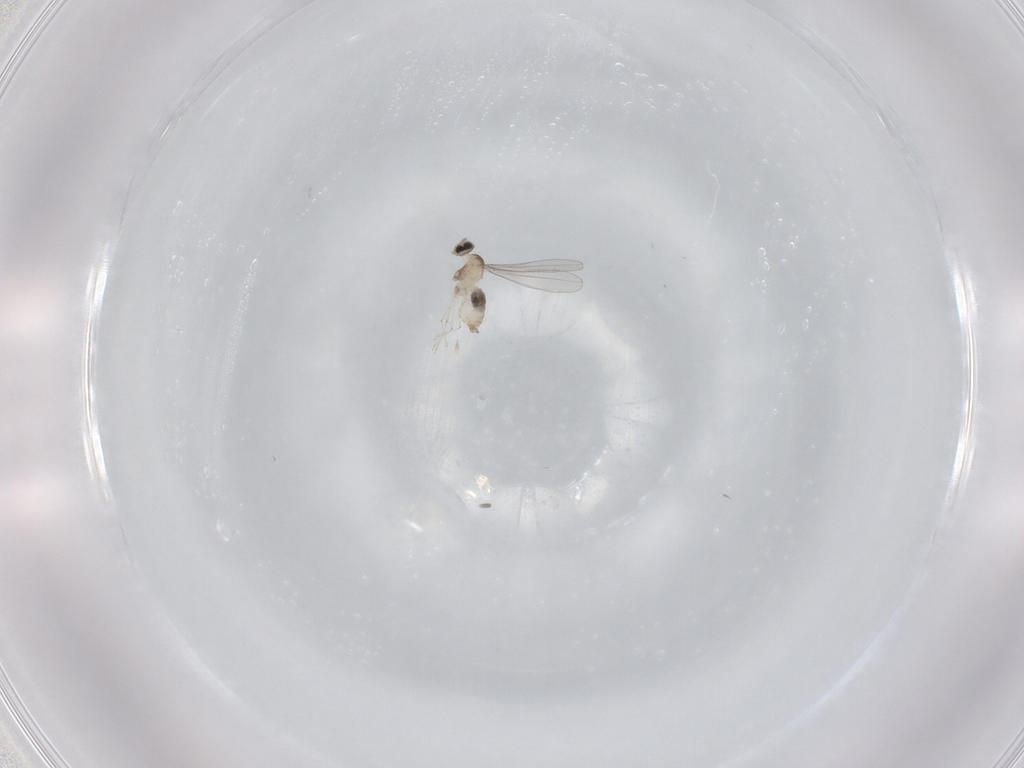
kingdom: Animalia
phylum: Arthropoda
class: Insecta
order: Diptera
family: Cecidomyiidae
